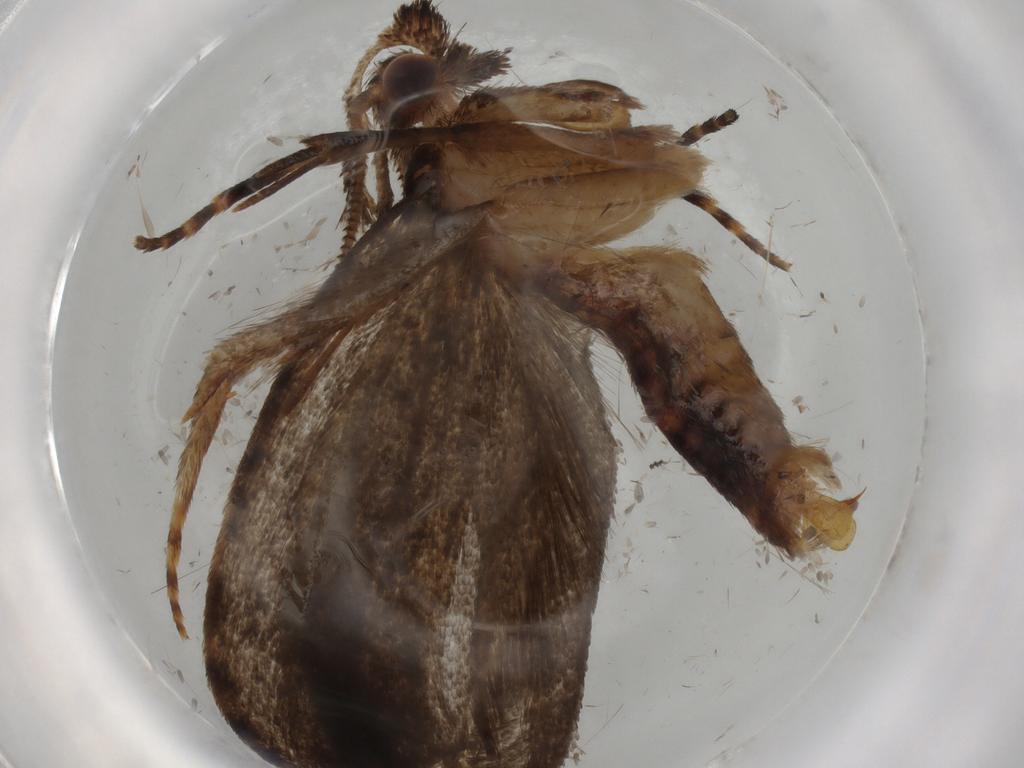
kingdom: Animalia
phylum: Arthropoda
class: Insecta
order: Lepidoptera
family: Tineidae
